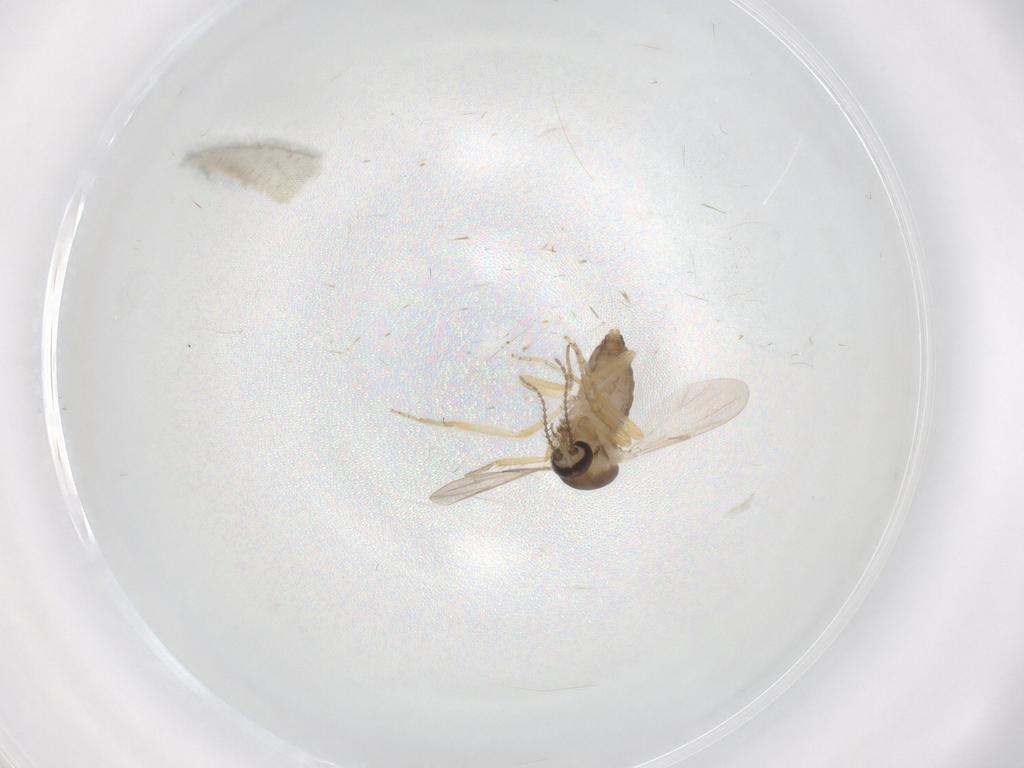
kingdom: Animalia
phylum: Arthropoda
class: Insecta
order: Diptera
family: Ceratopogonidae
